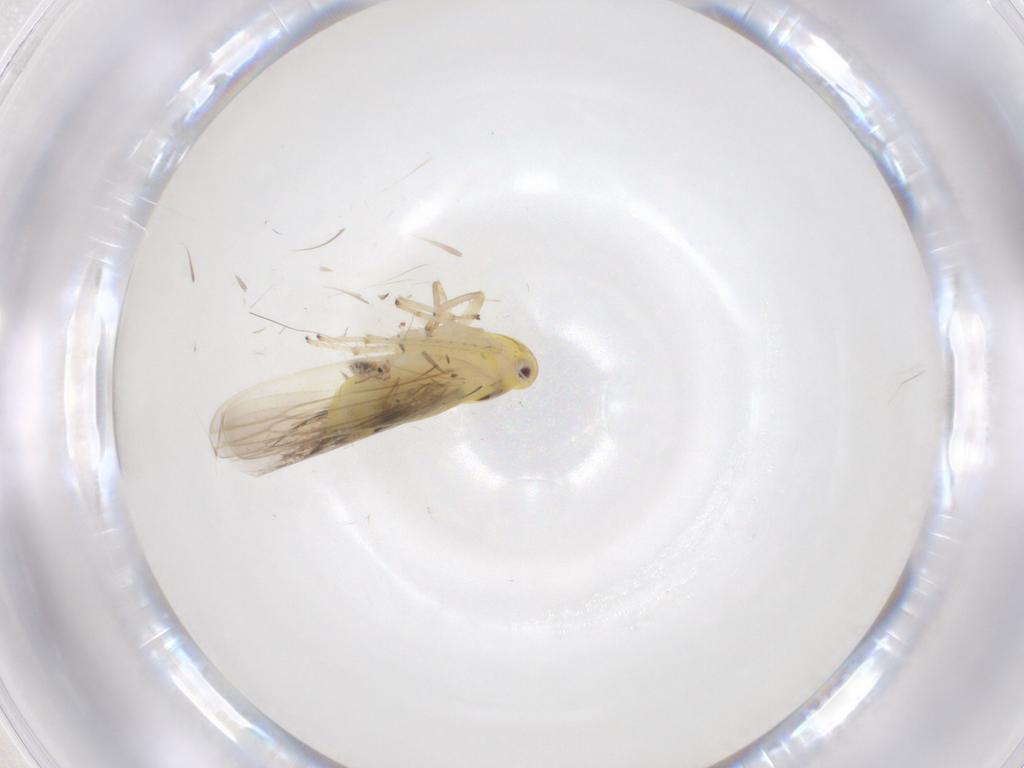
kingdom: Animalia
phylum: Arthropoda
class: Insecta
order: Hemiptera
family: Cicadellidae
